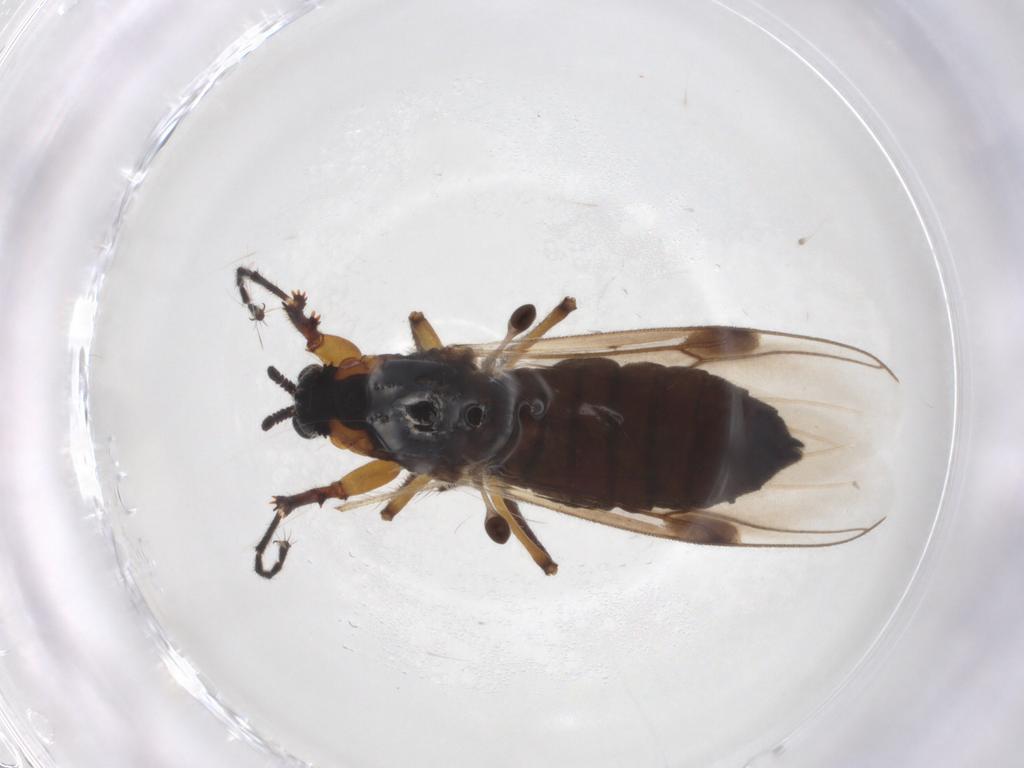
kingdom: Animalia
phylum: Arthropoda
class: Insecta
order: Diptera
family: Bibionidae
